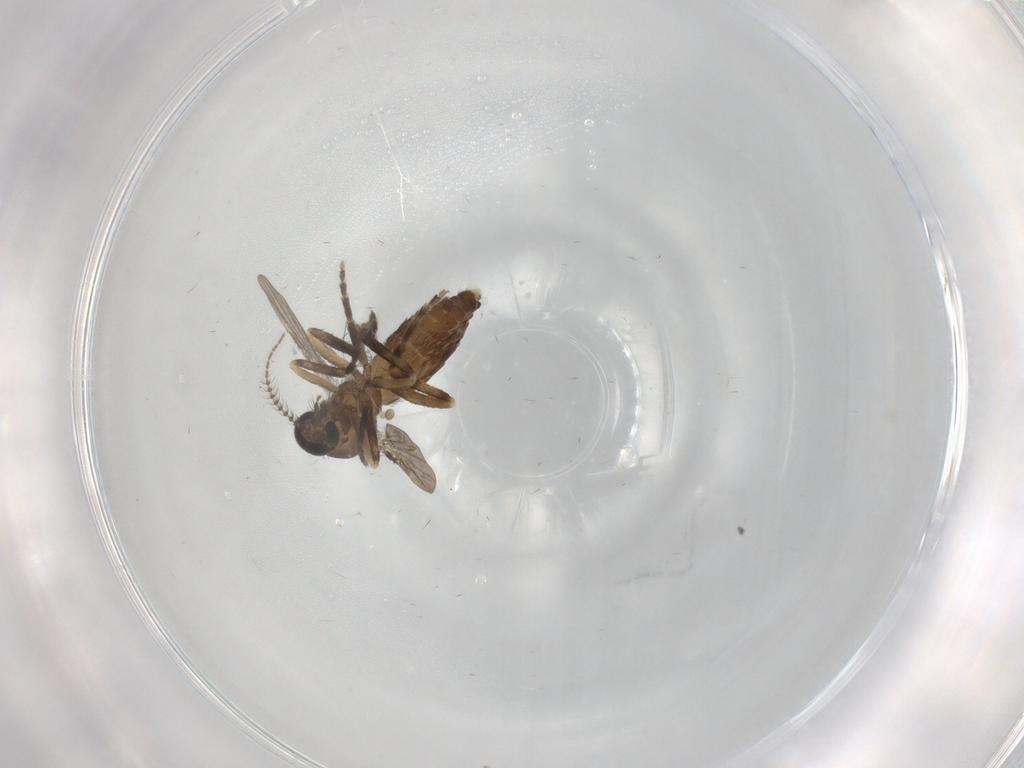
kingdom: Animalia
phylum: Arthropoda
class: Insecta
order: Diptera
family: Ceratopogonidae
